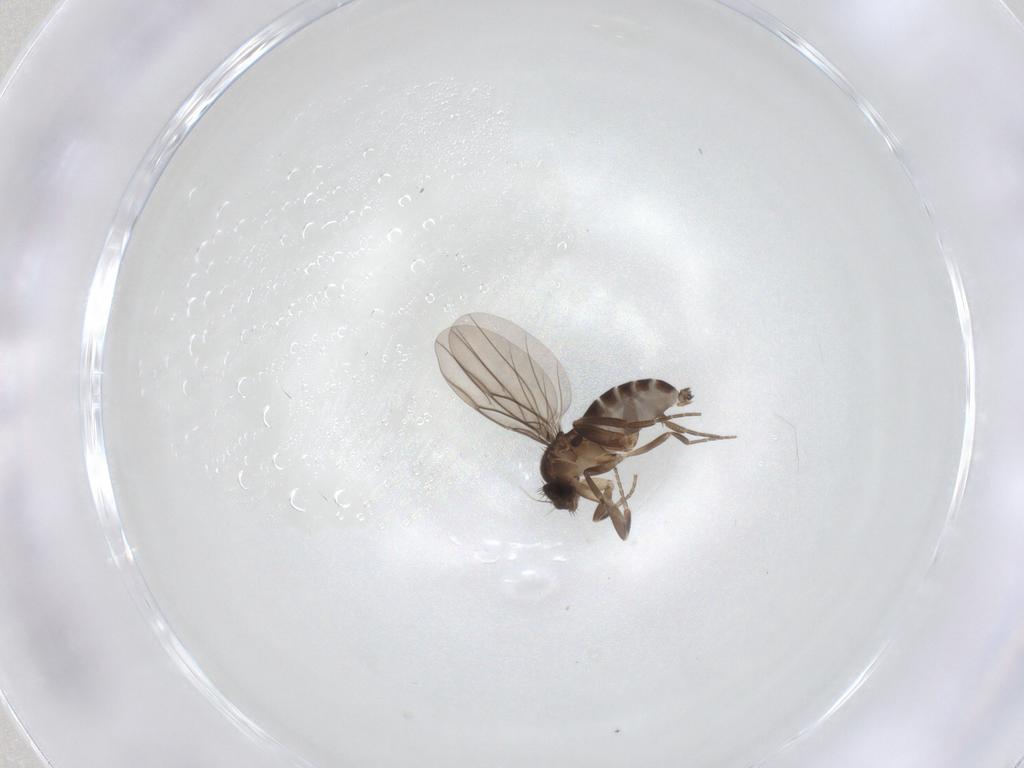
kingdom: Animalia
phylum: Arthropoda
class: Insecta
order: Diptera
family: Phoridae
